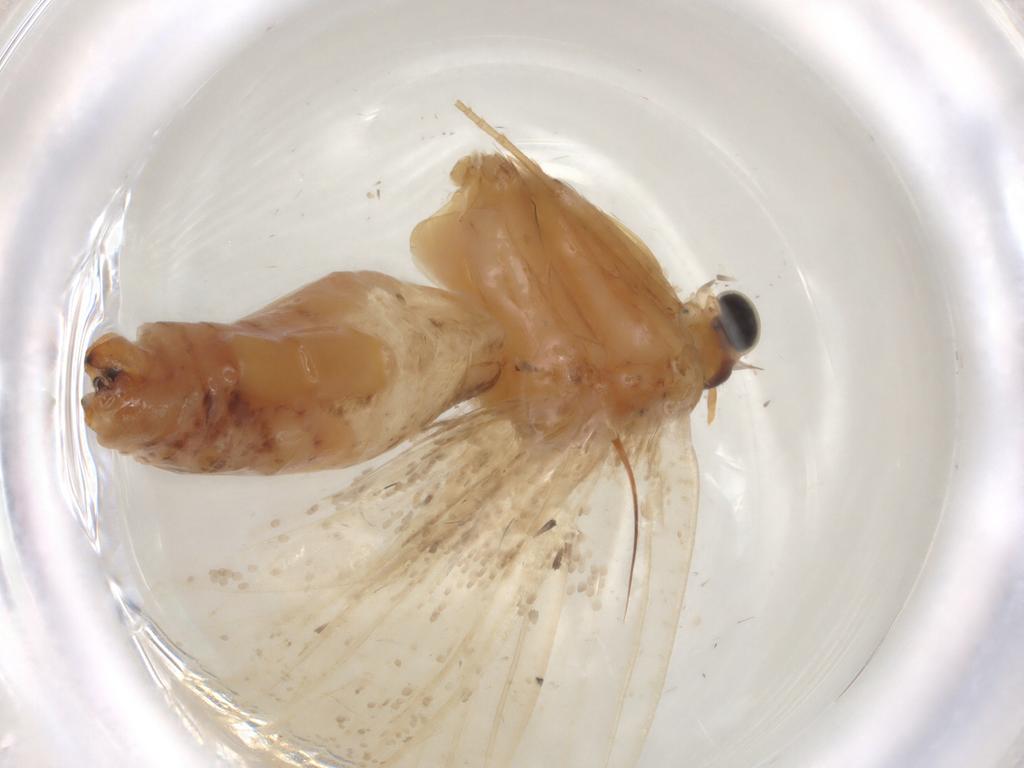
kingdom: Animalia
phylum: Arthropoda
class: Insecta
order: Lepidoptera
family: Tineidae
